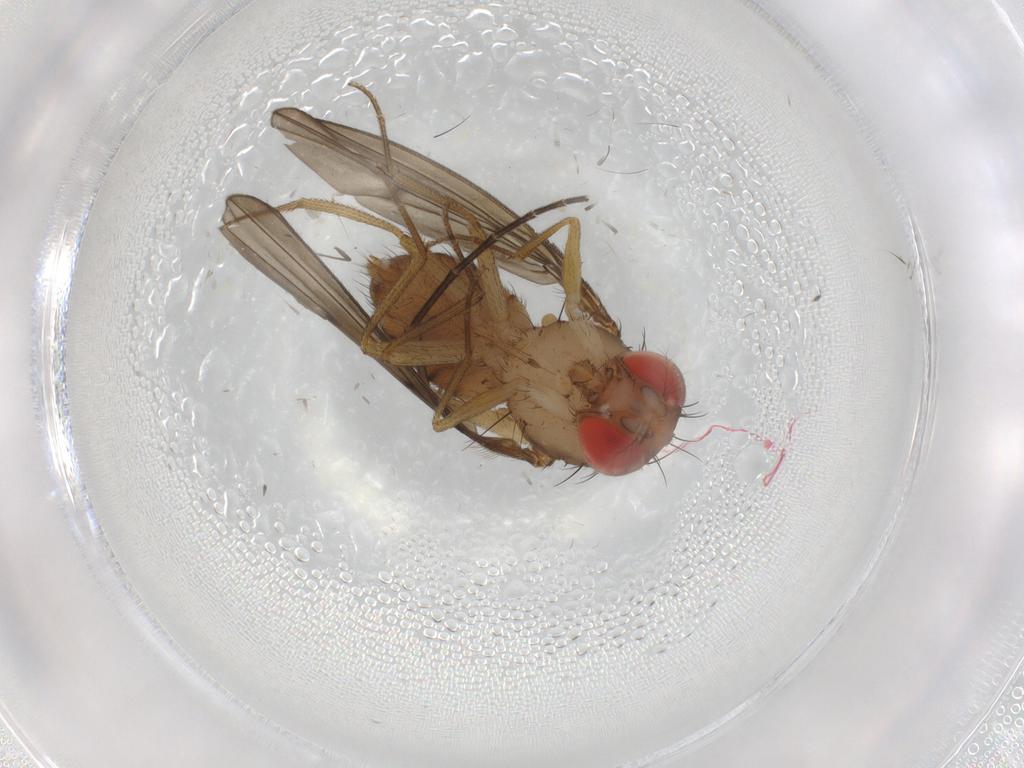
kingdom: Animalia
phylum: Arthropoda
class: Insecta
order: Diptera
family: Drosophilidae
